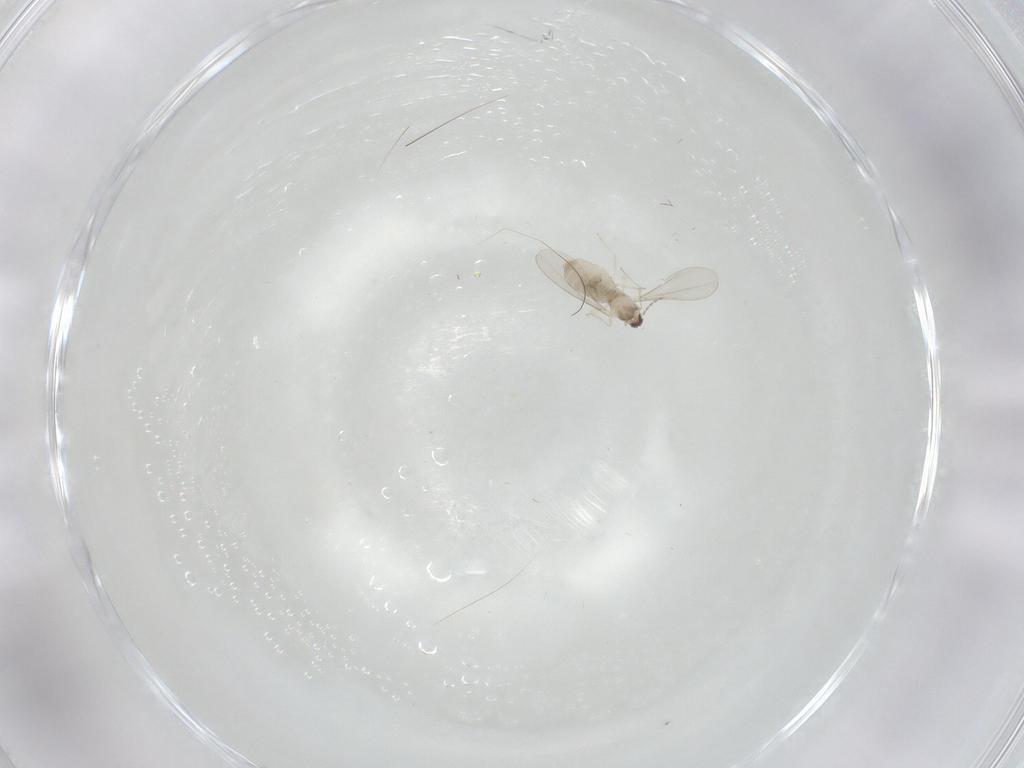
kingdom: Animalia
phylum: Arthropoda
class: Insecta
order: Diptera
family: Cecidomyiidae
